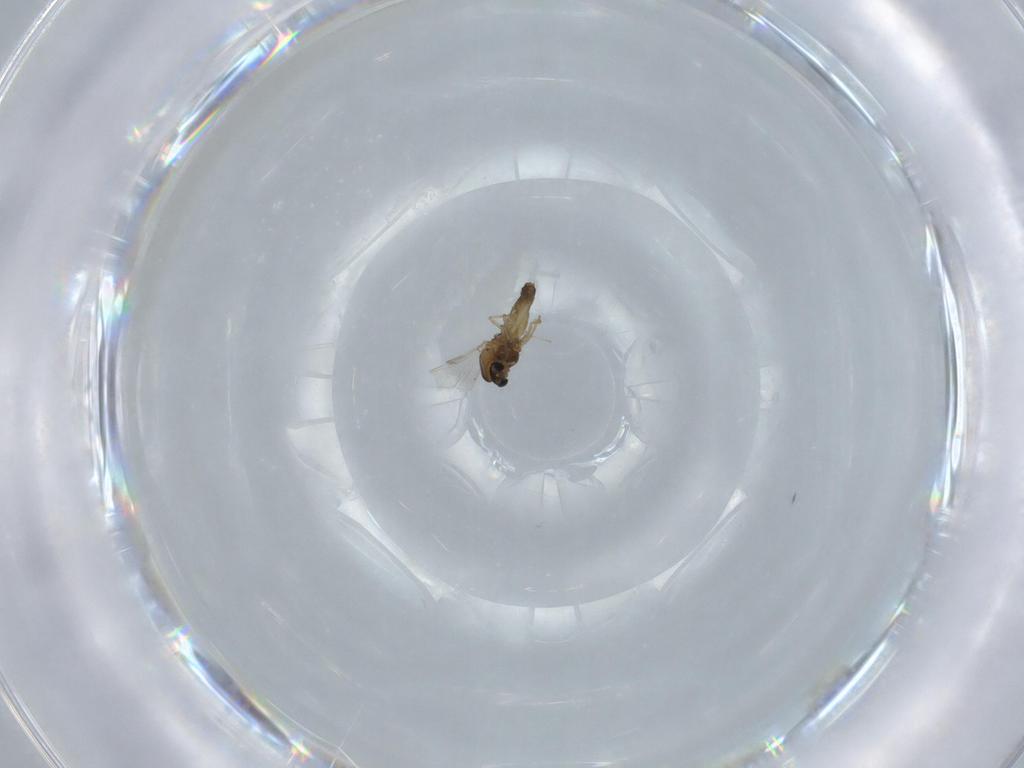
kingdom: Animalia
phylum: Arthropoda
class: Insecta
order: Diptera
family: Chironomidae
